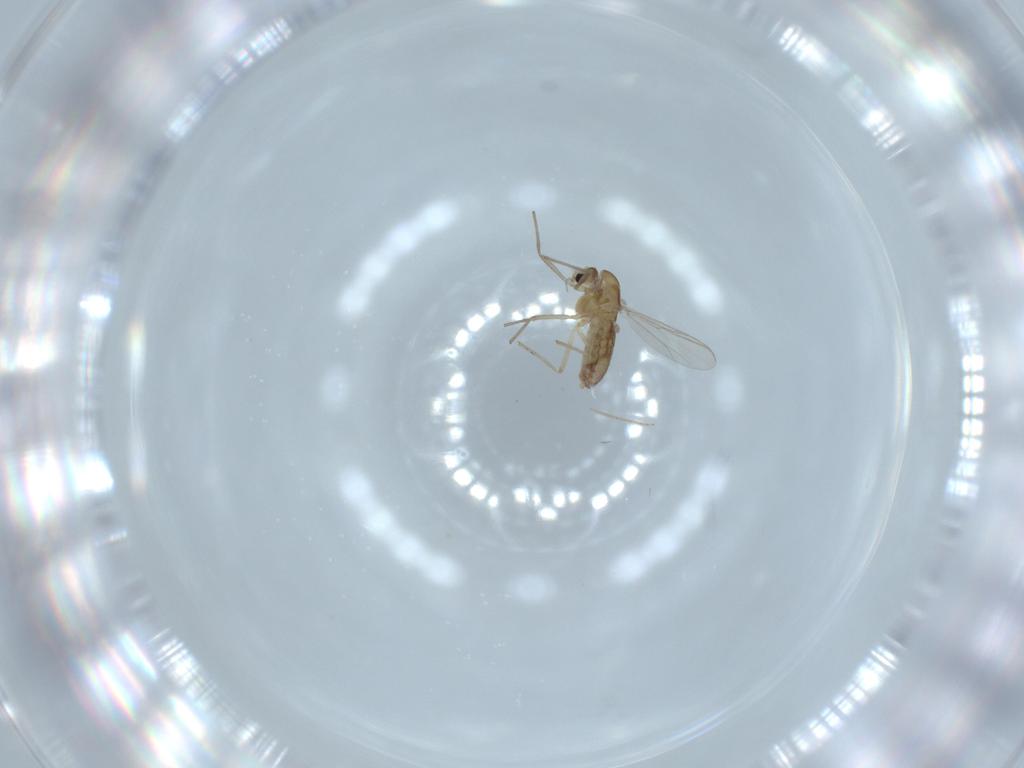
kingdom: Animalia
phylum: Arthropoda
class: Insecta
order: Diptera
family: Chironomidae
